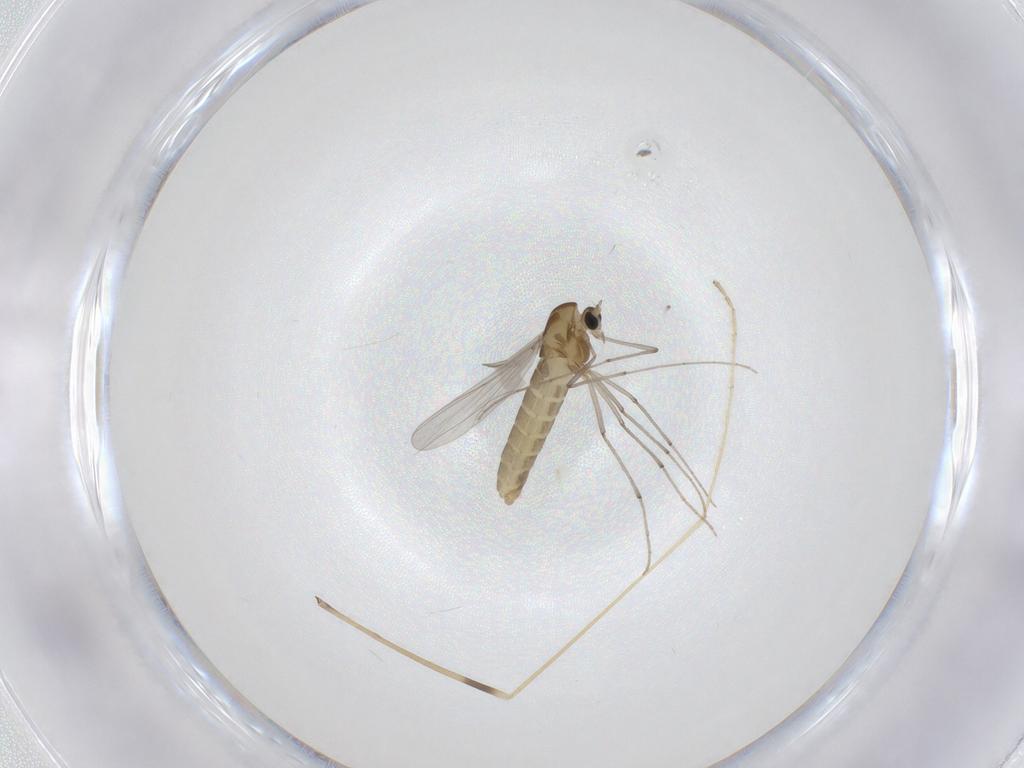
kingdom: Animalia
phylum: Arthropoda
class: Insecta
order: Diptera
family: Limoniidae
